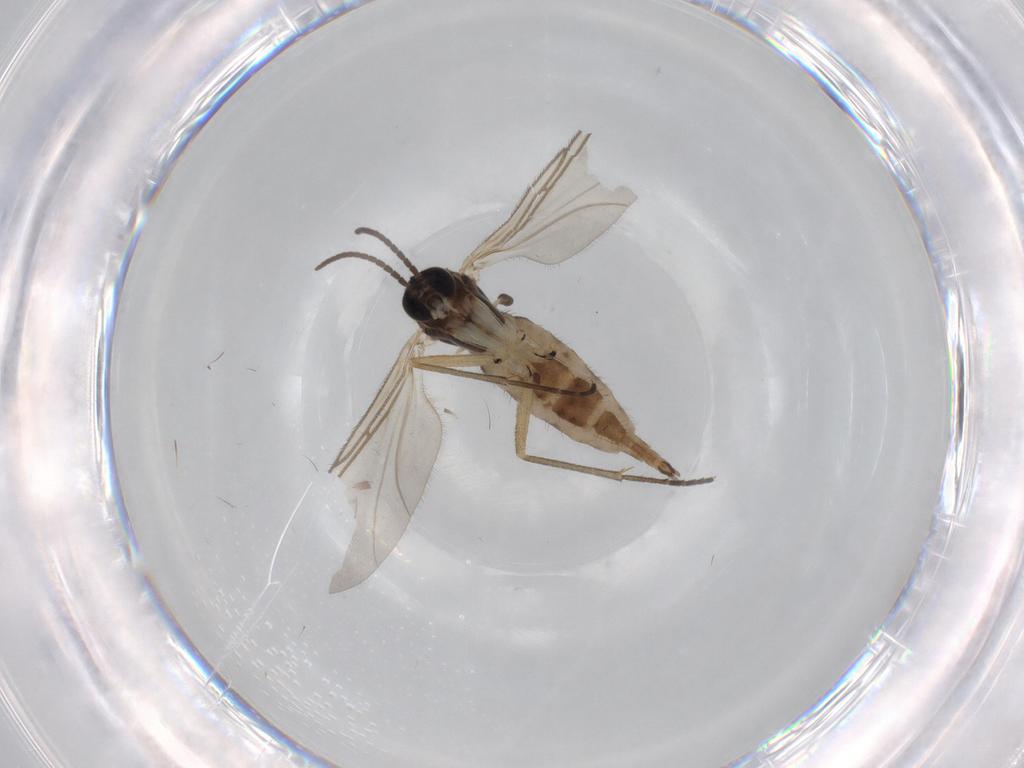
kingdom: Animalia
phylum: Arthropoda
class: Insecta
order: Diptera
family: Sciaridae
